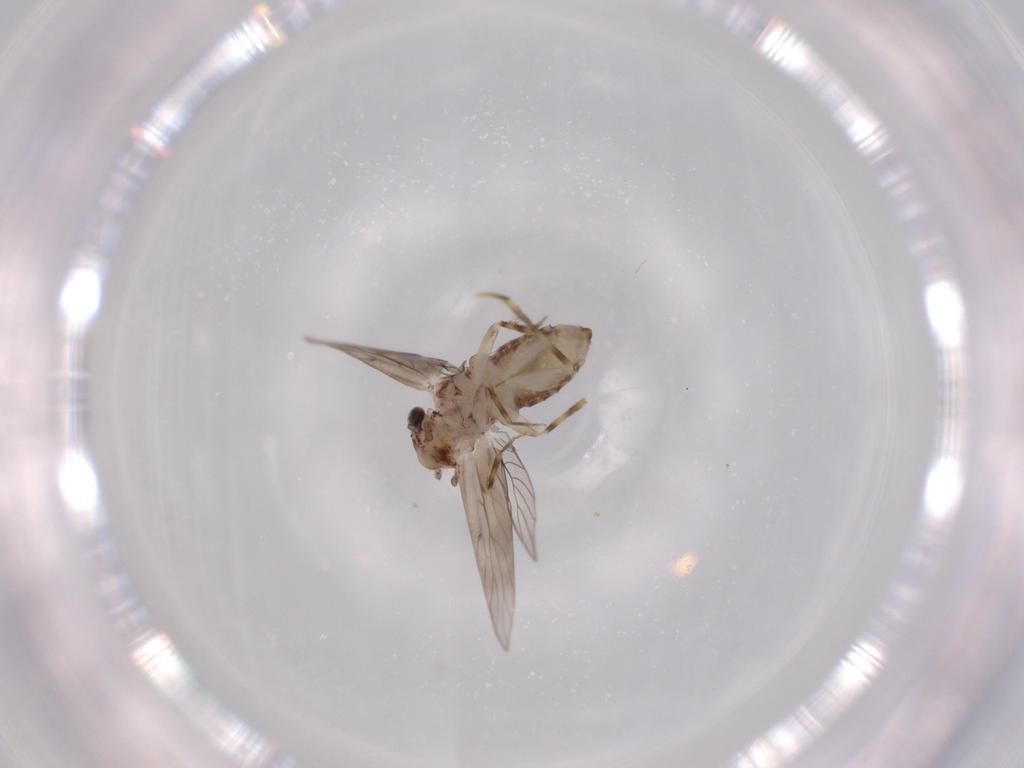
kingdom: Animalia
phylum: Arthropoda
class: Insecta
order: Psocodea
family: Lepidopsocidae
